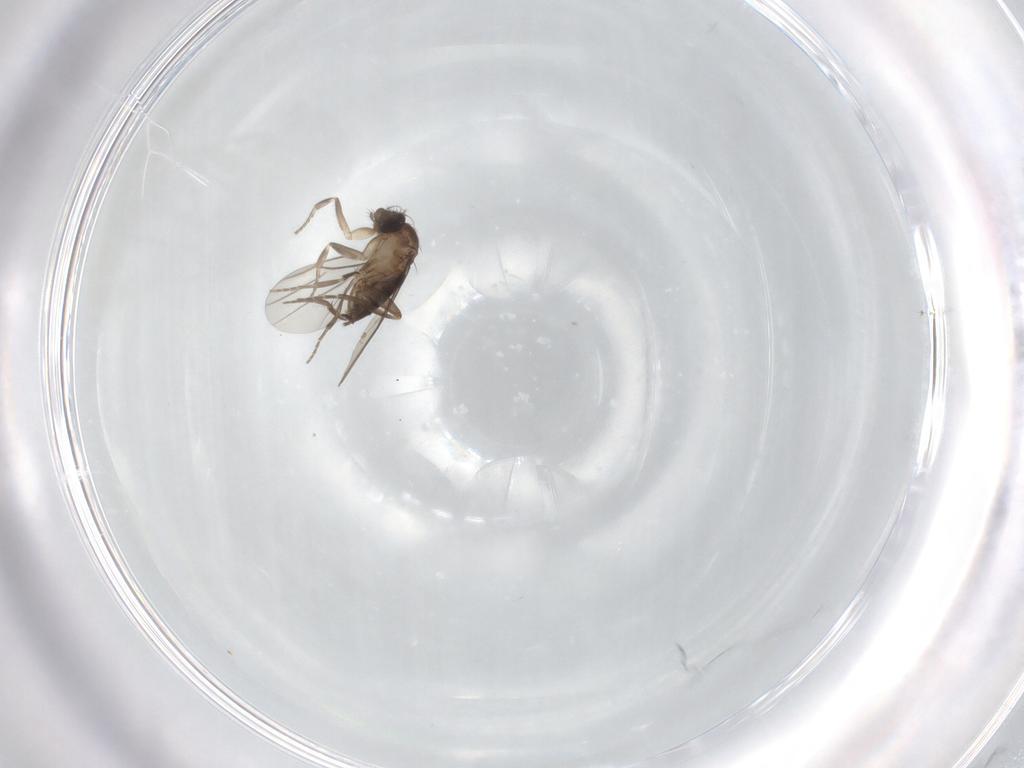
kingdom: Animalia
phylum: Arthropoda
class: Insecta
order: Diptera
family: Phoridae
